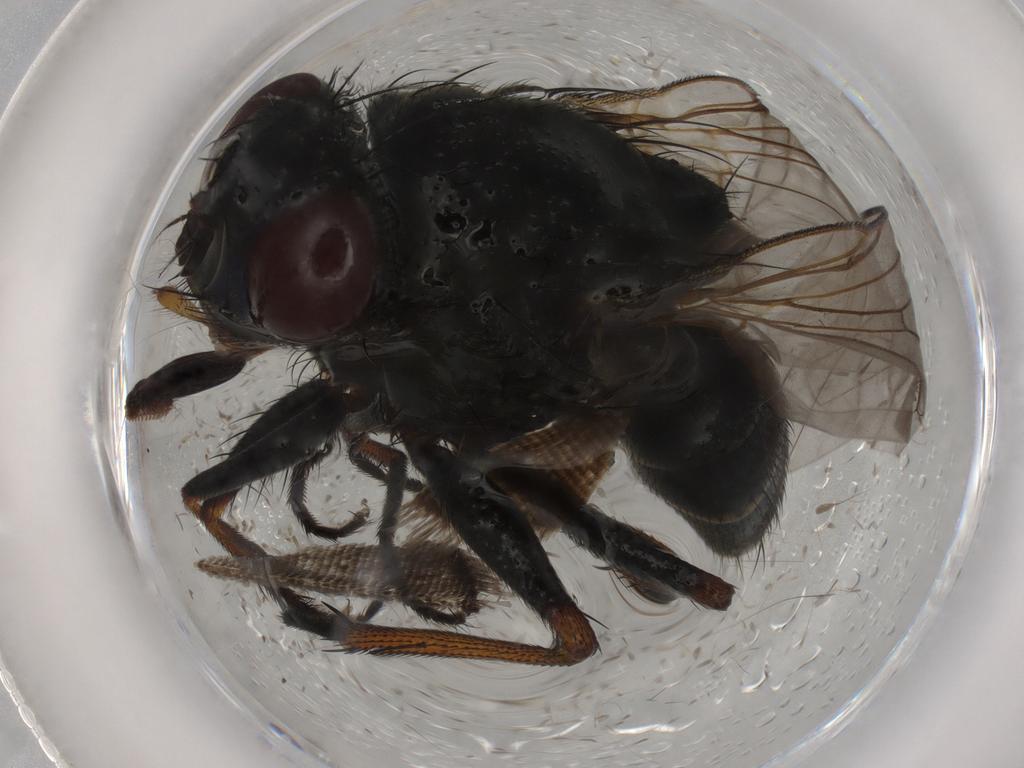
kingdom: Animalia
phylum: Arthropoda
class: Insecta
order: Diptera
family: Muscidae
